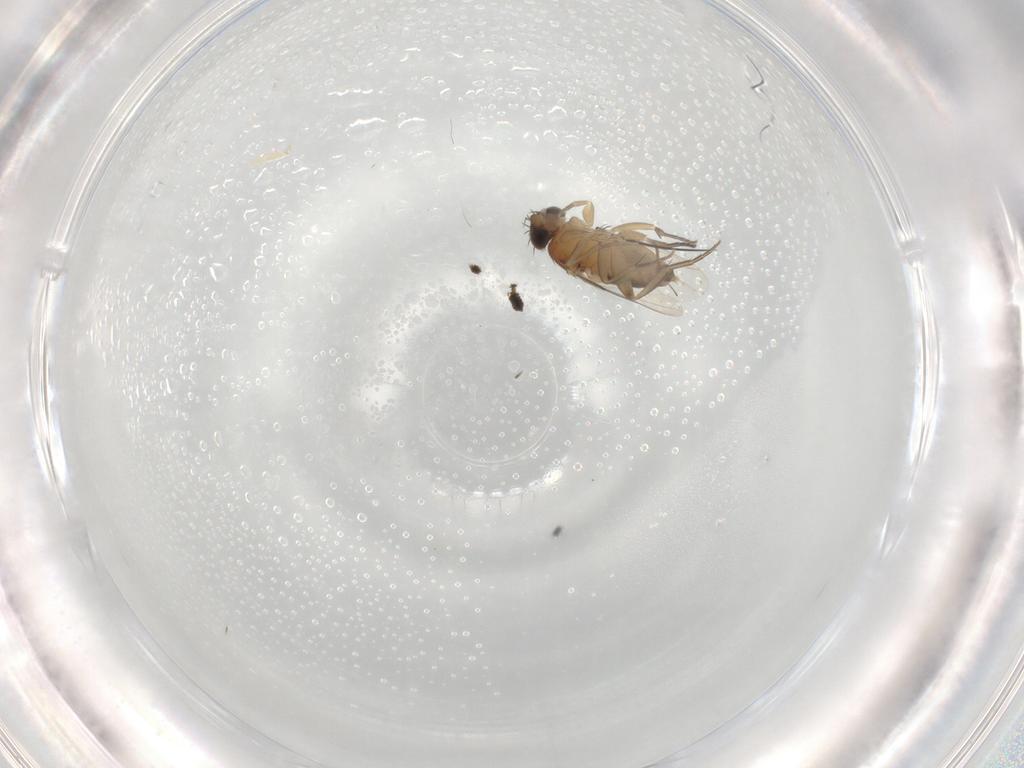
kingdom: Animalia
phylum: Arthropoda
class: Insecta
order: Diptera
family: Phoridae
